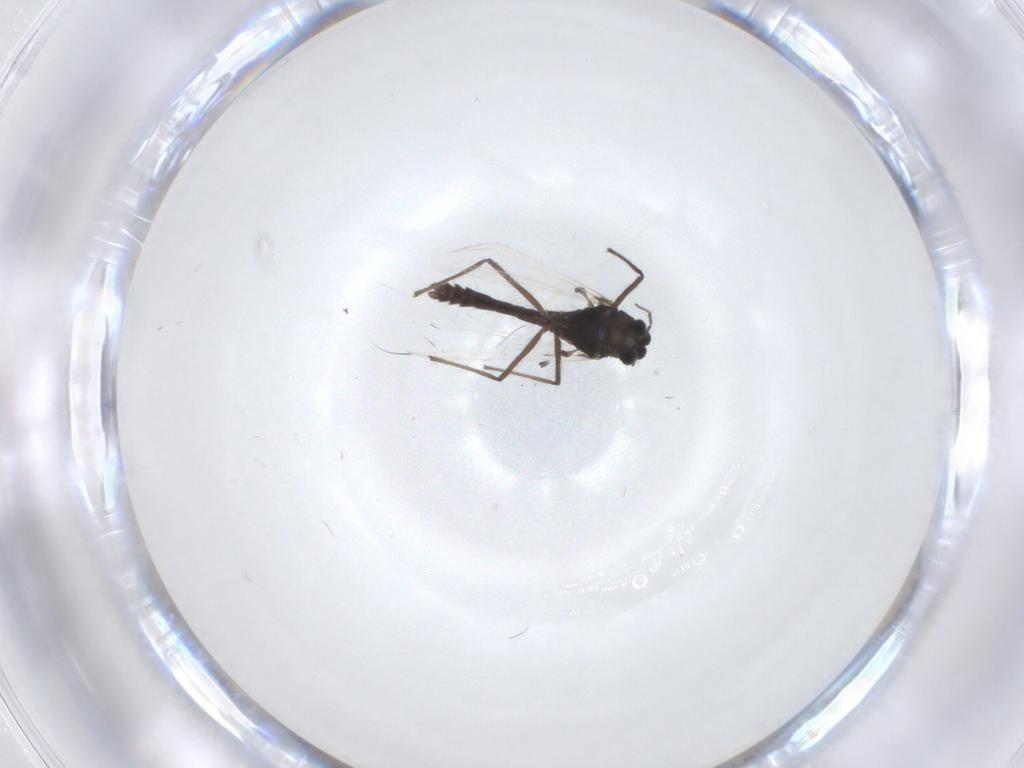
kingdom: Animalia
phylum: Arthropoda
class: Insecta
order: Diptera
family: Chironomidae
